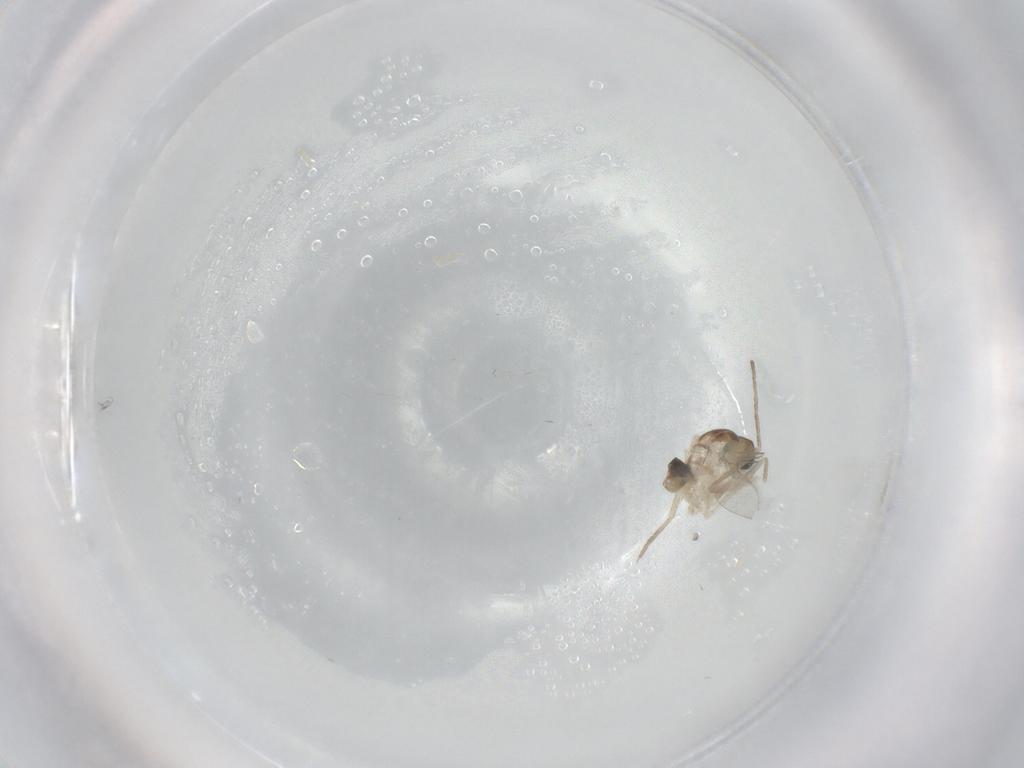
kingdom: Animalia
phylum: Arthropoda
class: Insecta
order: Diptera
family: Cecidomyiidae
